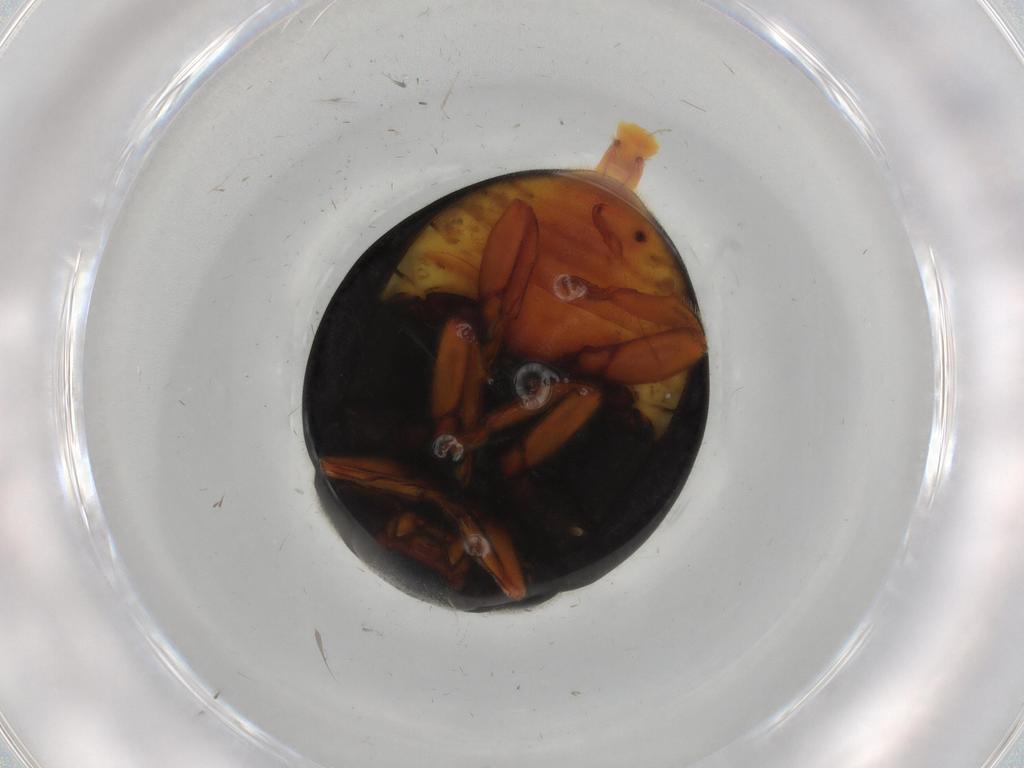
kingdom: Animalia
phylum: Arthropoda
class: Insecta
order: Coleoptera
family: Coccinellidae
